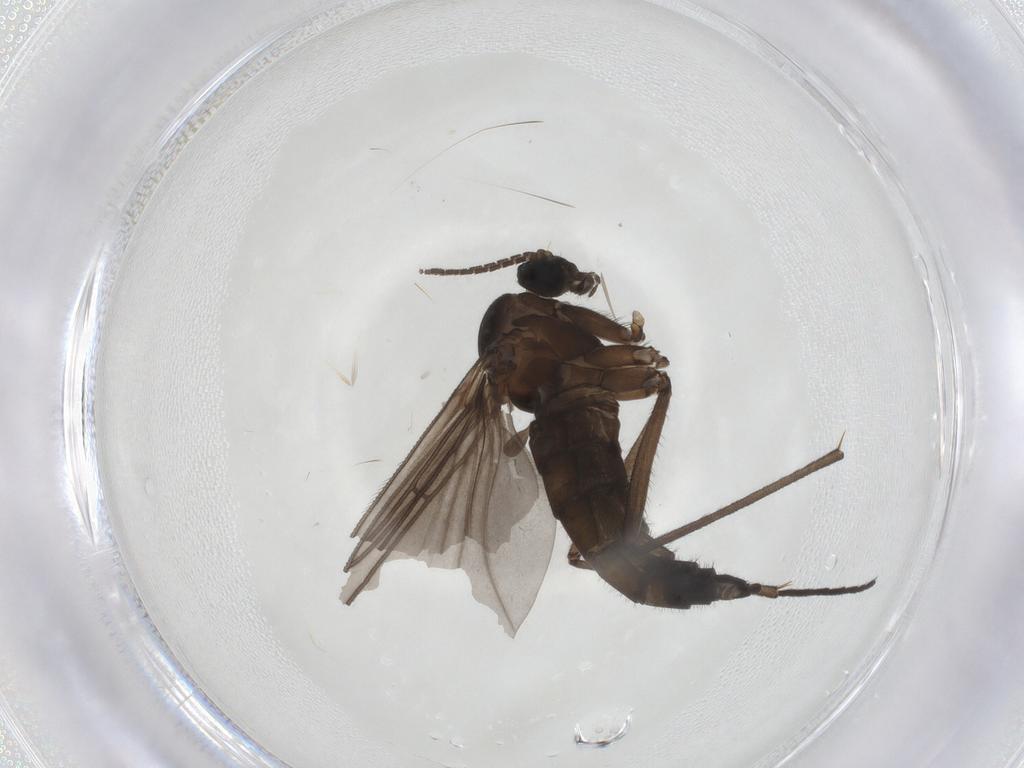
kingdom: Animalia
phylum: Arthropoda
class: Insecta
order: Diptera
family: Sciaridae
